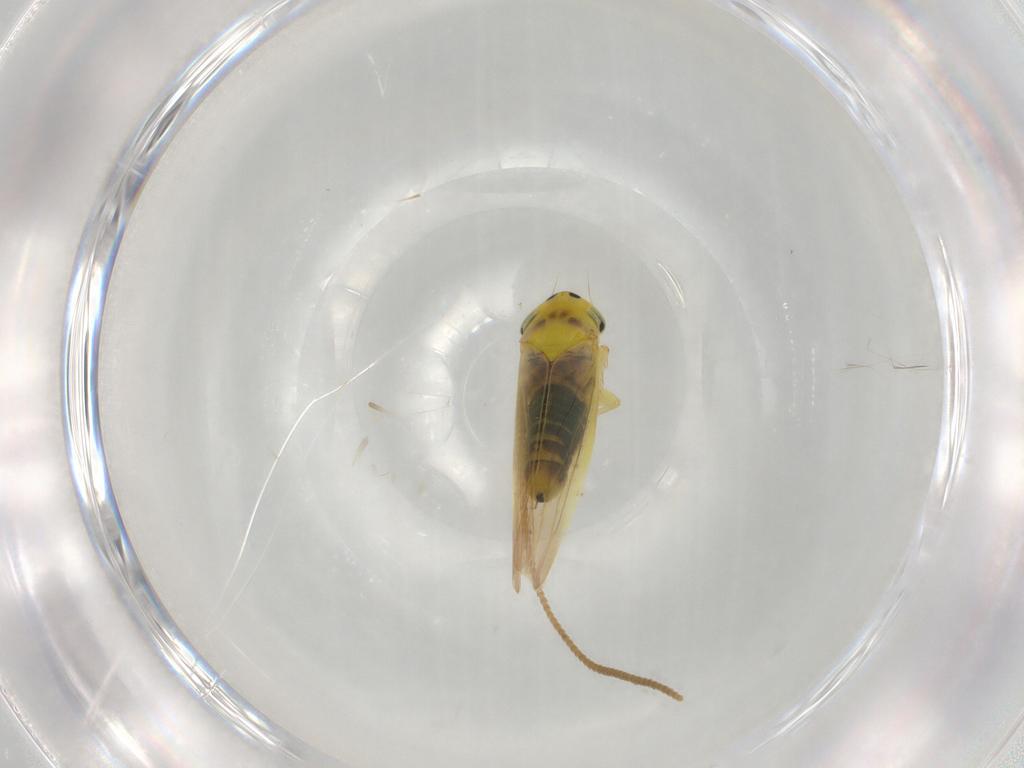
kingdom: Animalia
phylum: Arthropoda
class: Insecta
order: Hemiptera
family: Cicadellidae
